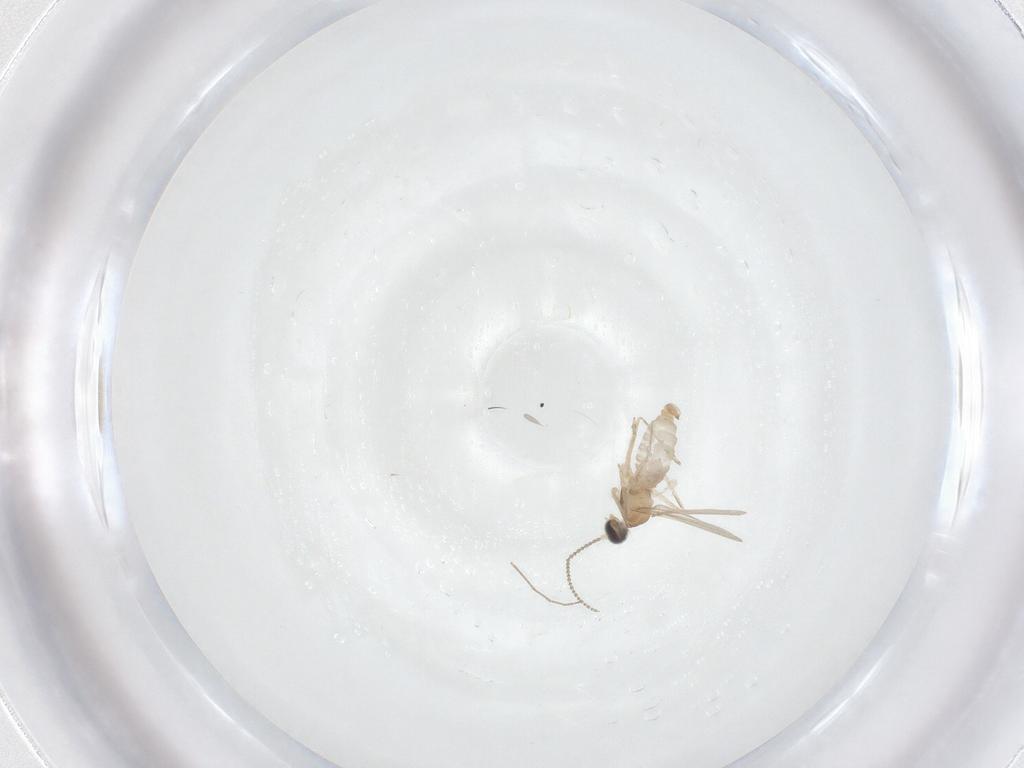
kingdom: Animalia
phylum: Arthropoda
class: Insecta
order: Diptera
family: Cecidomyiidae
